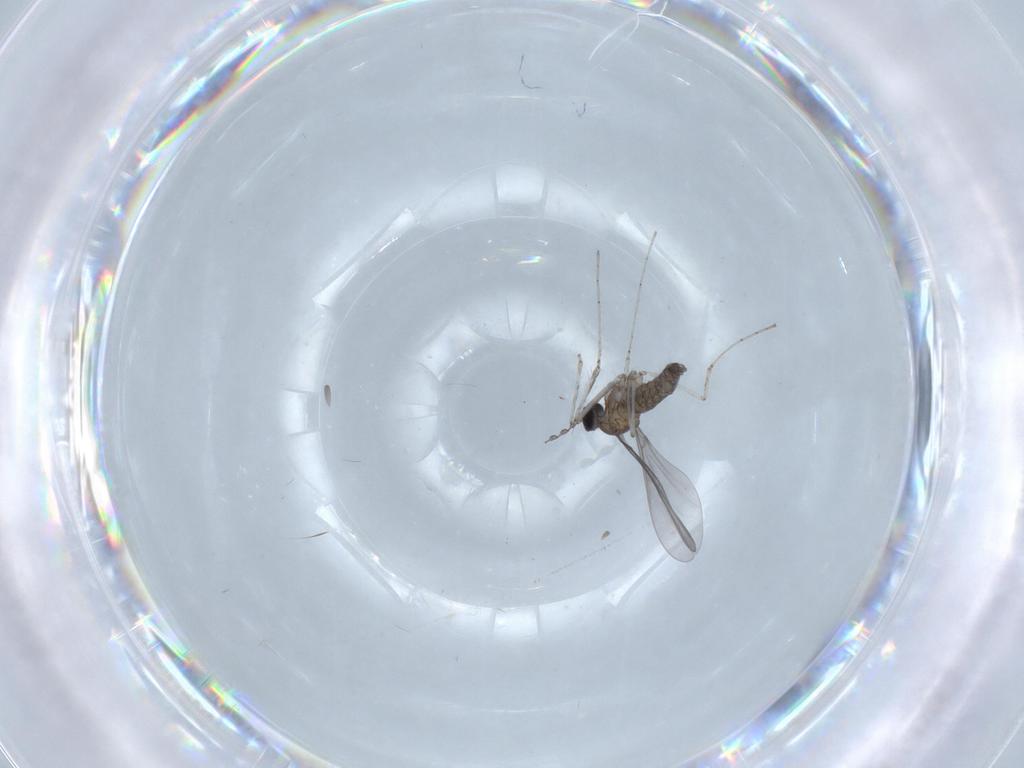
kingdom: Animalia
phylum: Arthropoda
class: Insecta
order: Diptera
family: Cecidomyiidae
